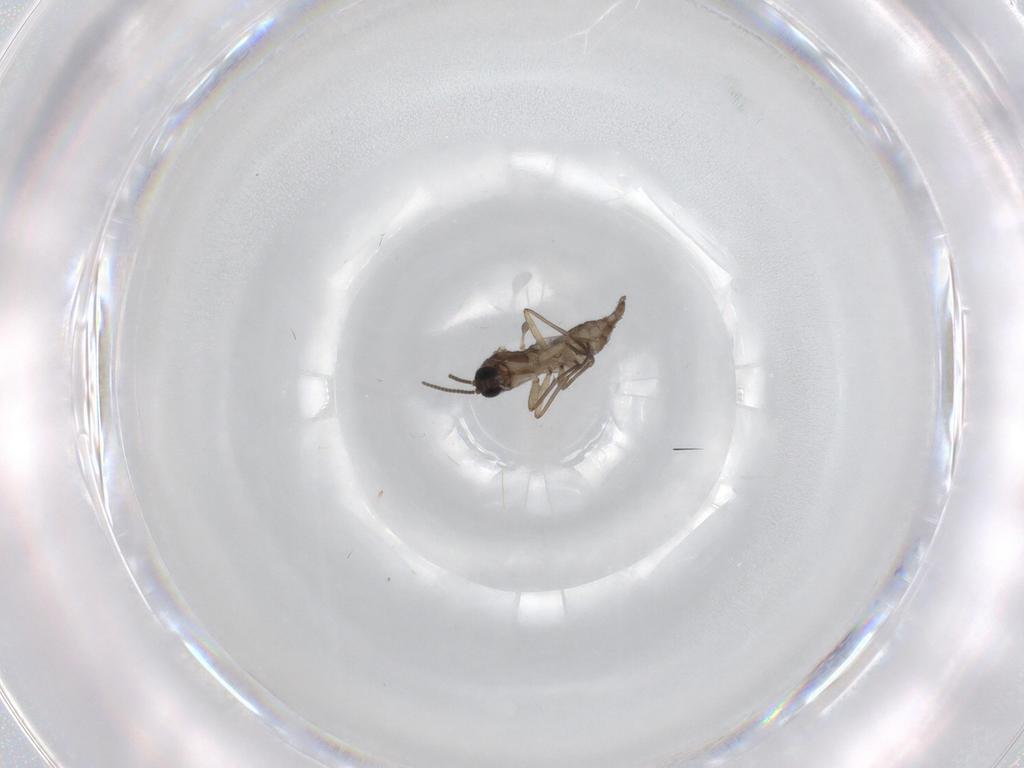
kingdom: Animalia
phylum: Arthropoda
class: Insecta
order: Diptera
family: Sciaridae
